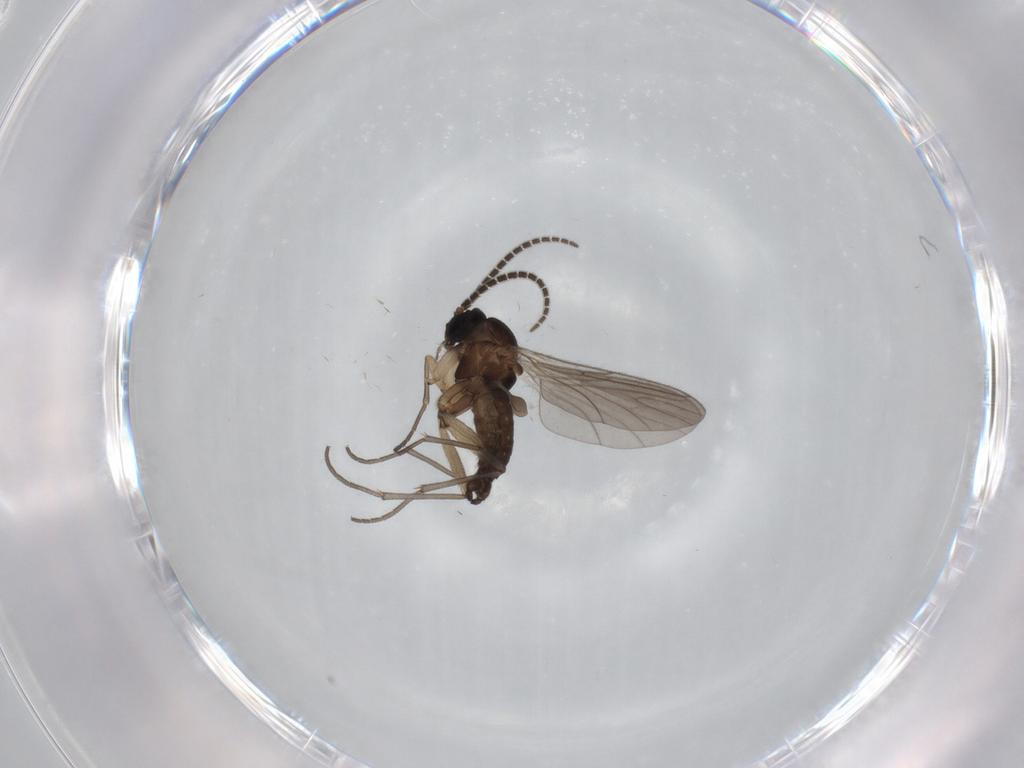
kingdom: Animalia
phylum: Arthropoda
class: Insecta
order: Diptera
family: Sciaridae
